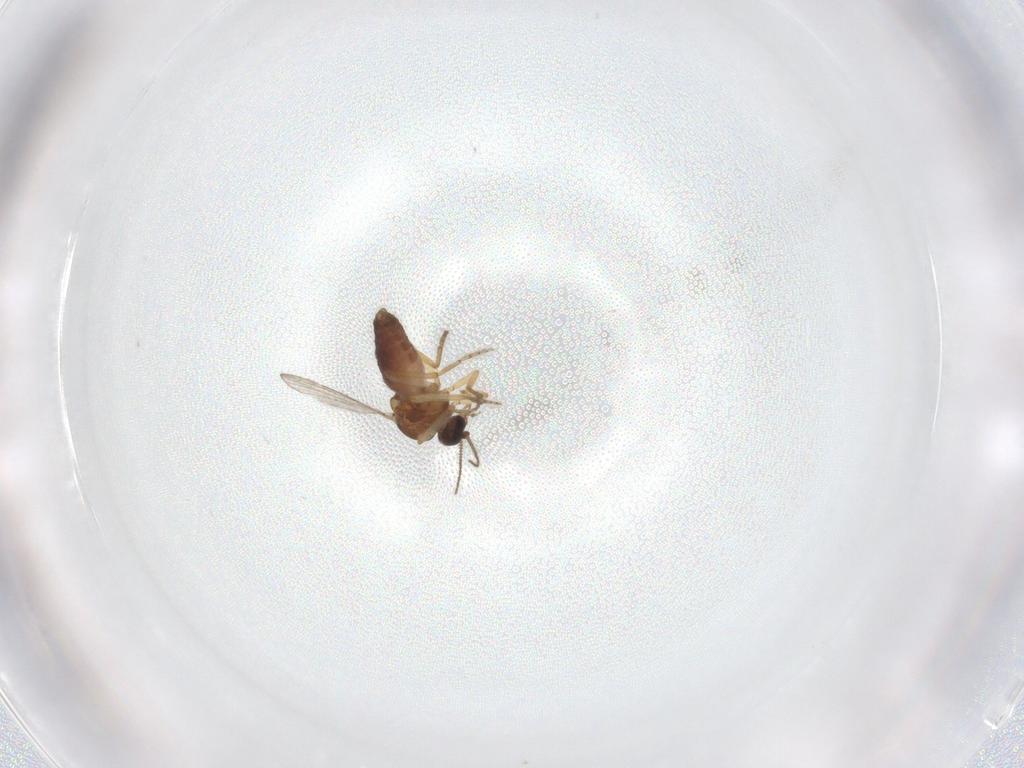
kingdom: Animalia
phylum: Arthropoda
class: Insecta
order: Diptera
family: Ceratopogonidae
